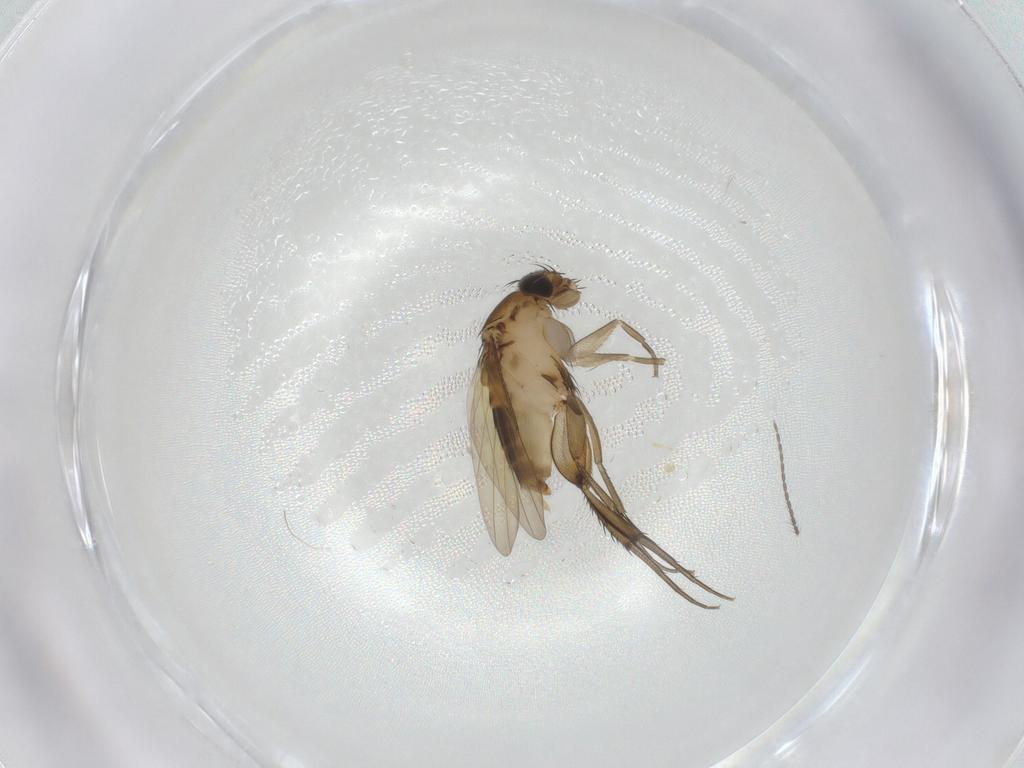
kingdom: Animalia
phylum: Arthropoda
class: Insecta
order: Diptera
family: Phoridae
